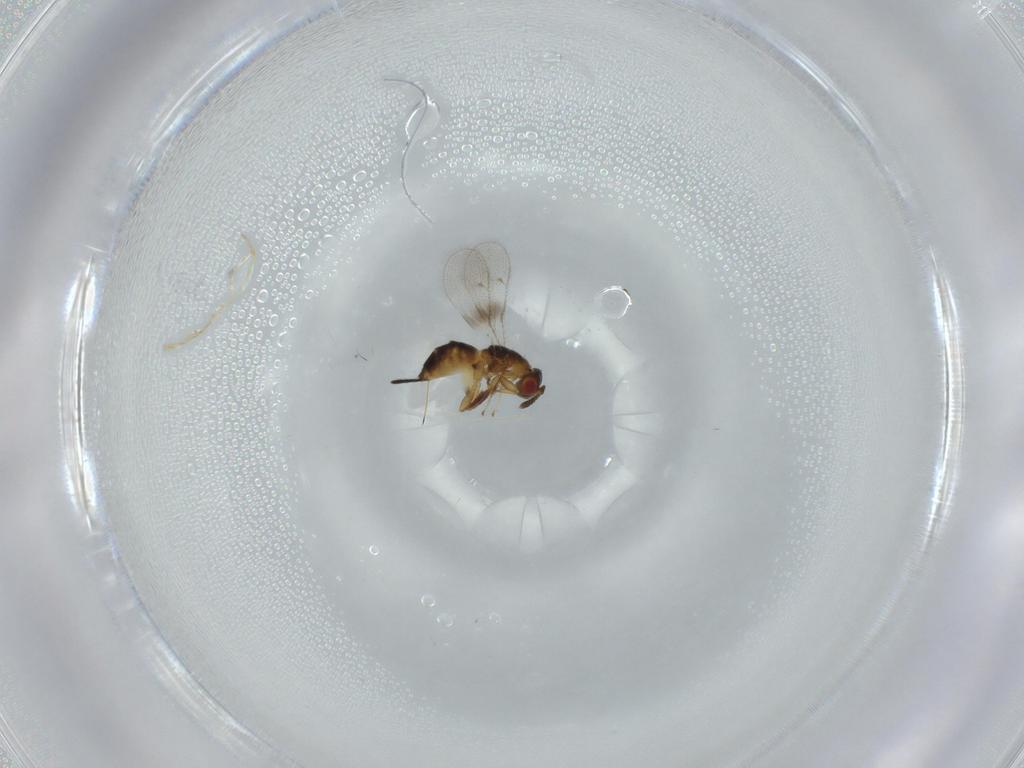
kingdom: Animalia
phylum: Arthropoda
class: Insecta
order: Hymenoptera
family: Torymidae
